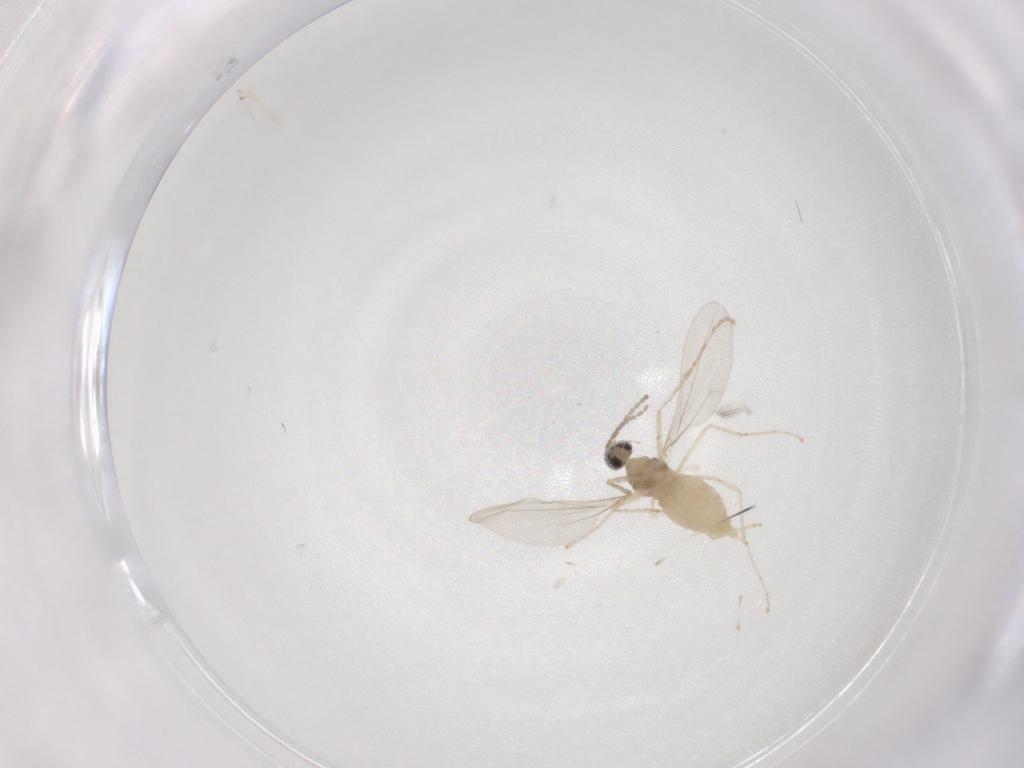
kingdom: Animalia
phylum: Arthropoda
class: Insecta
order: Diptera
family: Cecidomyiidae
